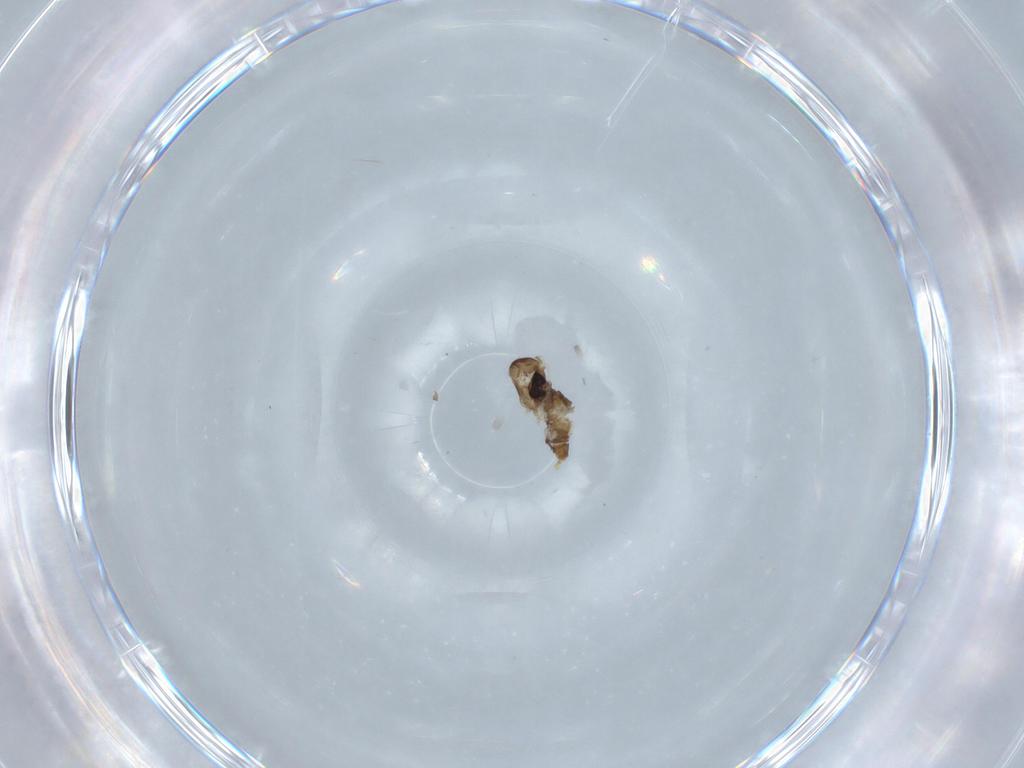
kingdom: Animalia
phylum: Arthropoda
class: Insecta
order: Diptera
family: Cecidomyiidae
